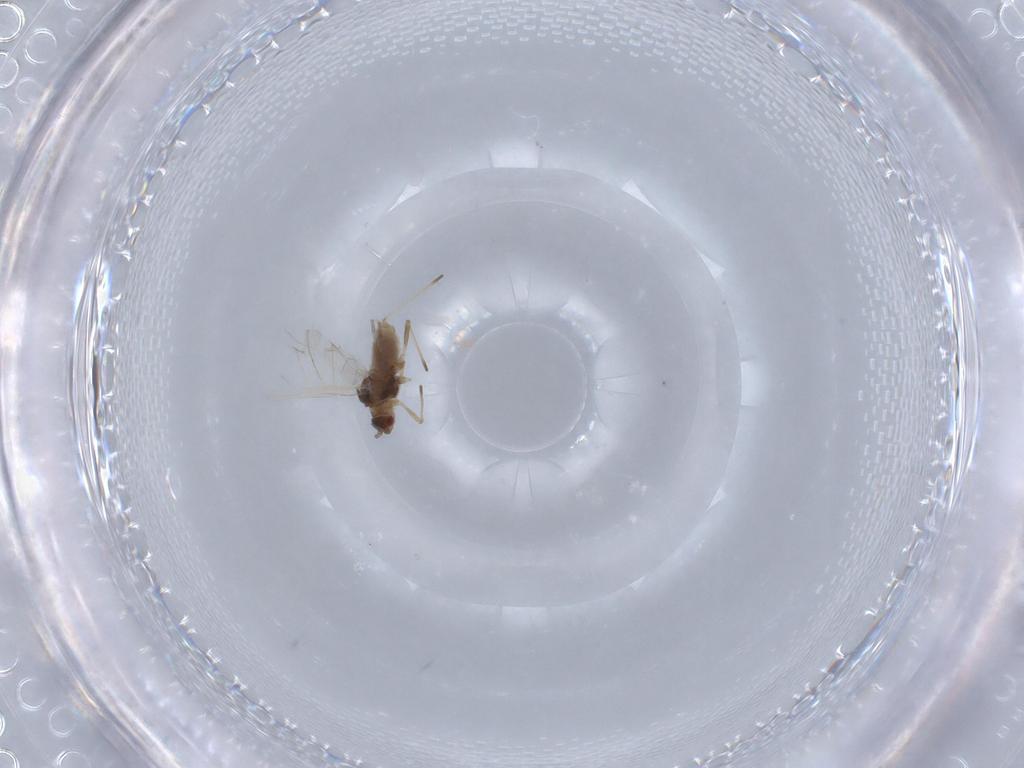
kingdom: Animalia
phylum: Arthropoda
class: Insecta
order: Hemiptera
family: Aphididae
